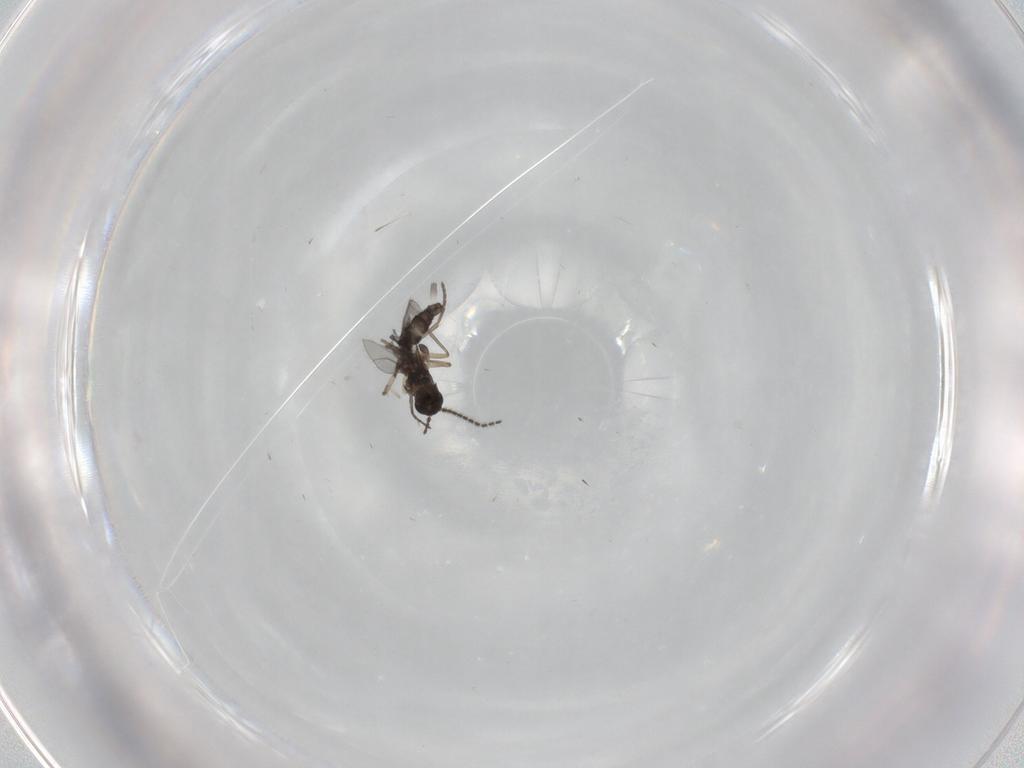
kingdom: Animalia
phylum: Arthropoda
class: Insecta
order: Diptera
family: Sciaridae
